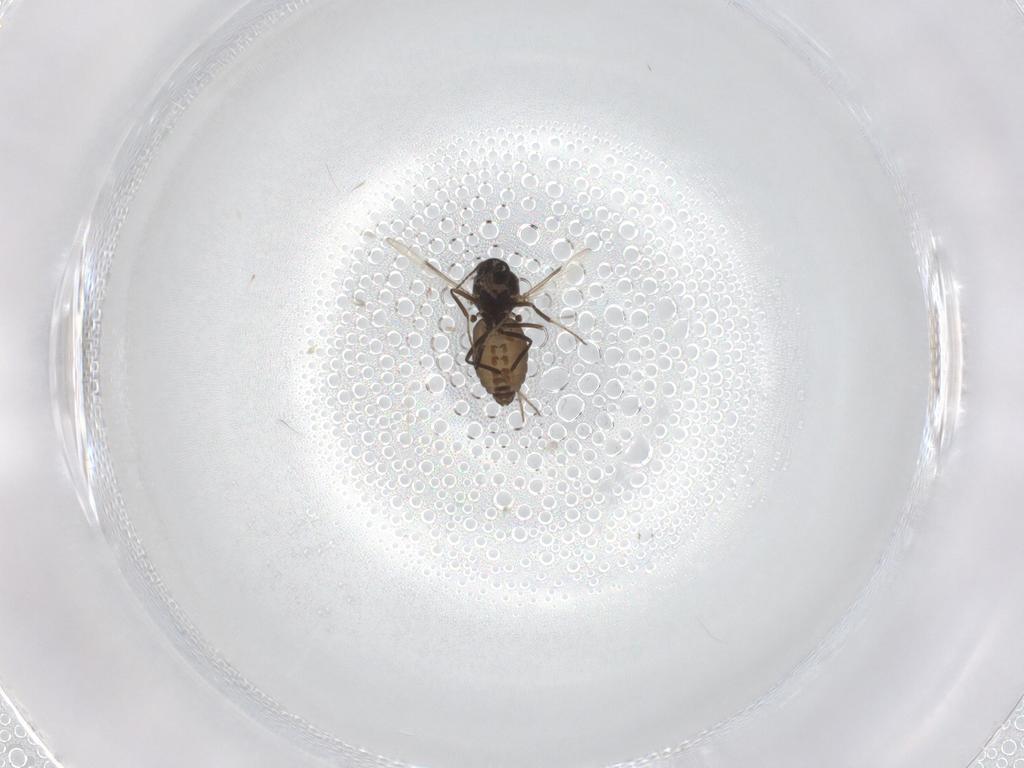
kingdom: Animalia
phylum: Arthropoda
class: Insecta
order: Diptera
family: Ceratopogonidae
